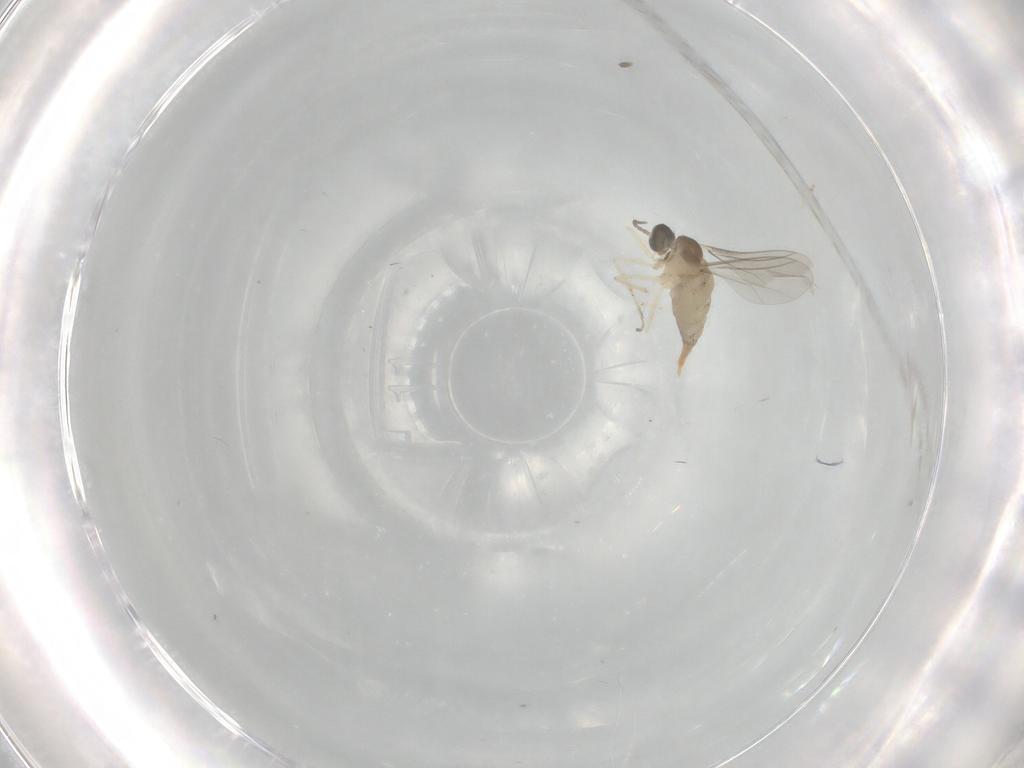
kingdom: Animalia
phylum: Arthropoda
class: Insecta
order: Diptera
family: Cecidomyiidae
